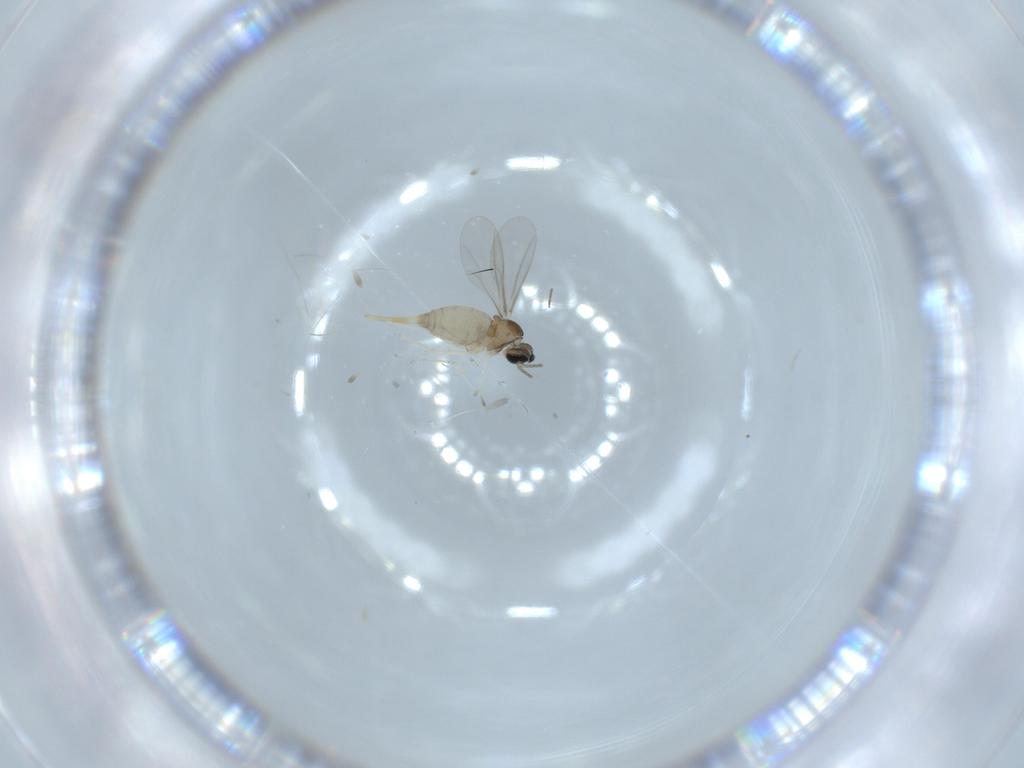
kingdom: Animalia
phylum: Arthropoda
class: Insecta
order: Diptera
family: Cecidomyiidae
